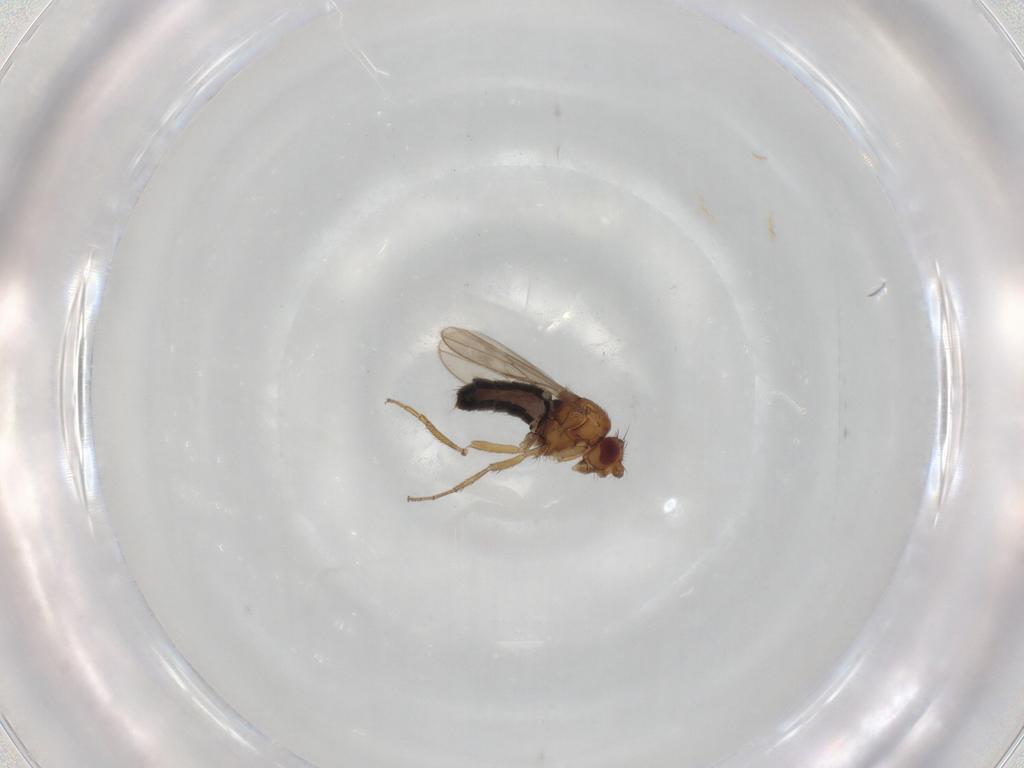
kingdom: Animalia
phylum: Arthropoda
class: Insecta
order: Diptera
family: Sphaeroceridae
